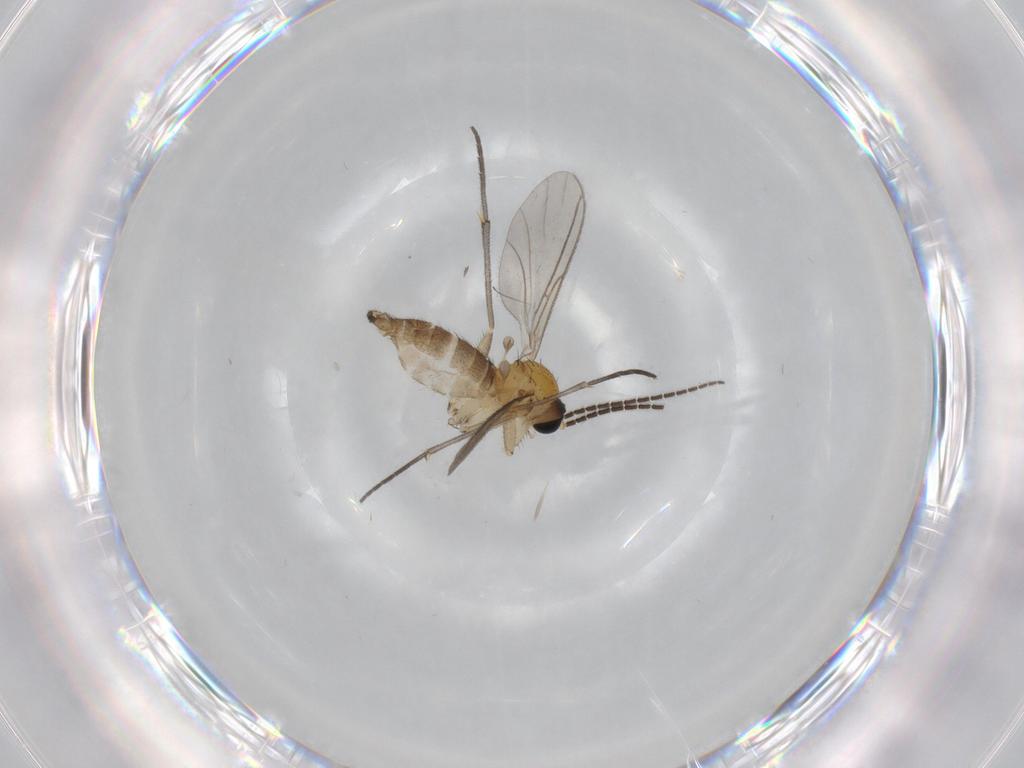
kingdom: Animalia
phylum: Arthropoda
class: Insecta
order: Diptera
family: Sciaridae
